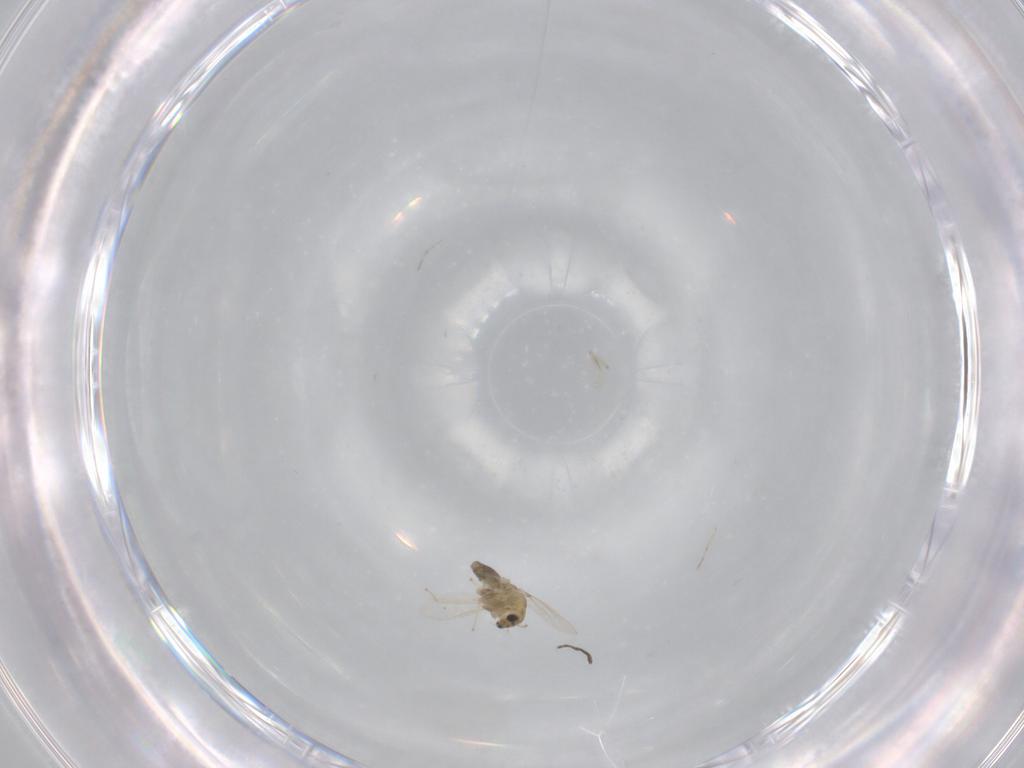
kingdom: Animalia
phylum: Arthropoda
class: Insecta
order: Diptera
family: Chironomidae
